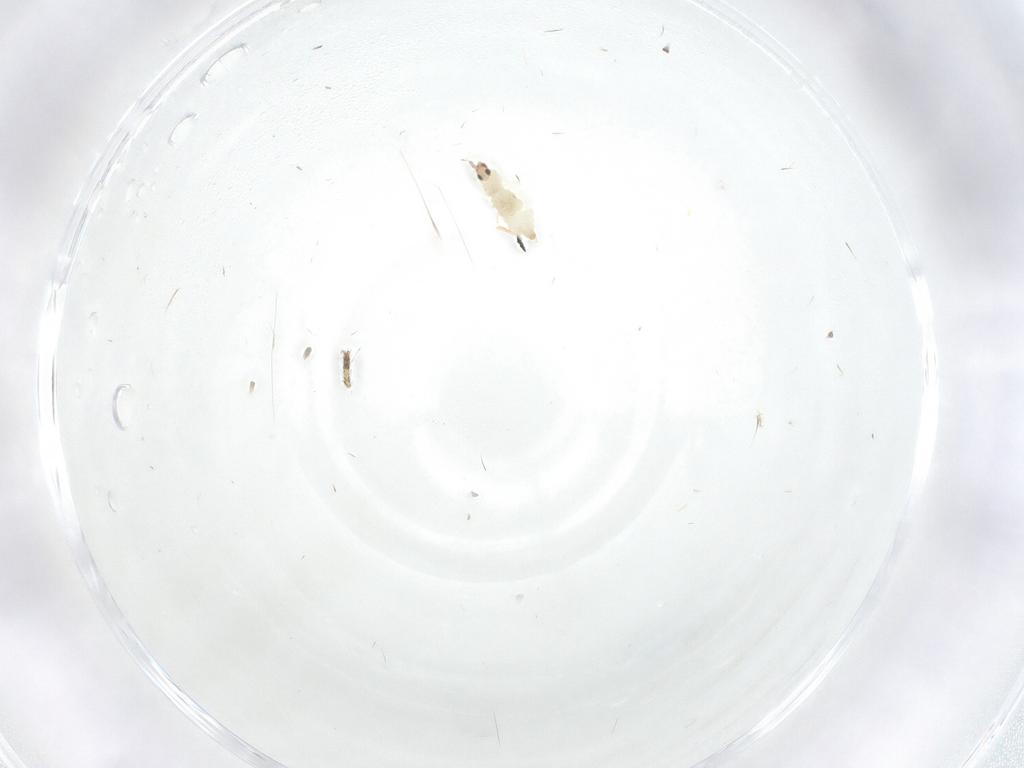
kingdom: Animalia
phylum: Arthropoda
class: Insecta
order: Diptera
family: Cecidomyiidae
